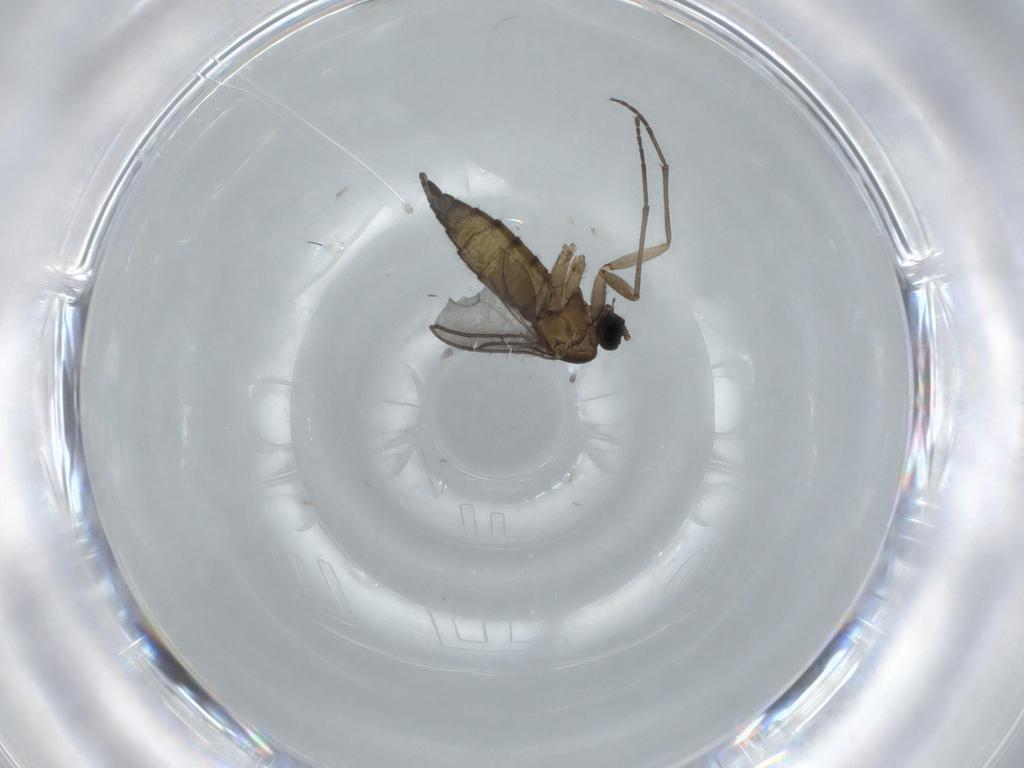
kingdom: Animalia
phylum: Arthropoda
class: Insecta
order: Diptera
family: Sciaridae
